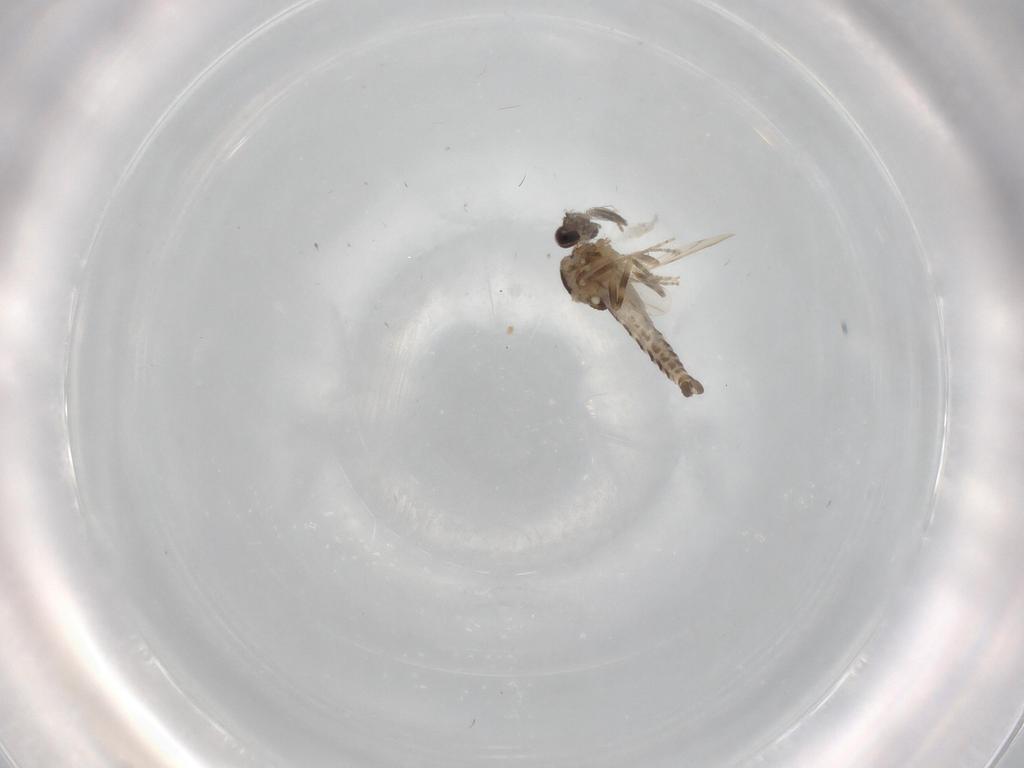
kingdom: Animalia
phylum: Arthropoda
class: Insecta
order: Diptera
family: Ceratopogonidae
